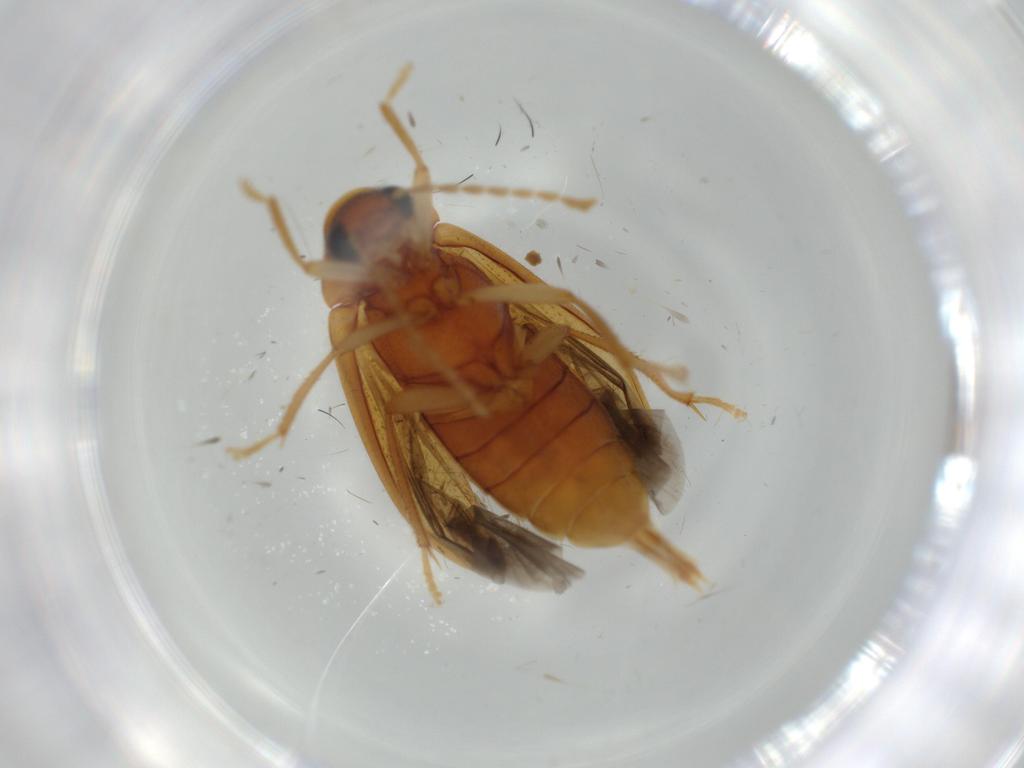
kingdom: Animalia
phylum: Arthropoda
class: Insecta
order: Coleoptera
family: Ptilodactylidae
